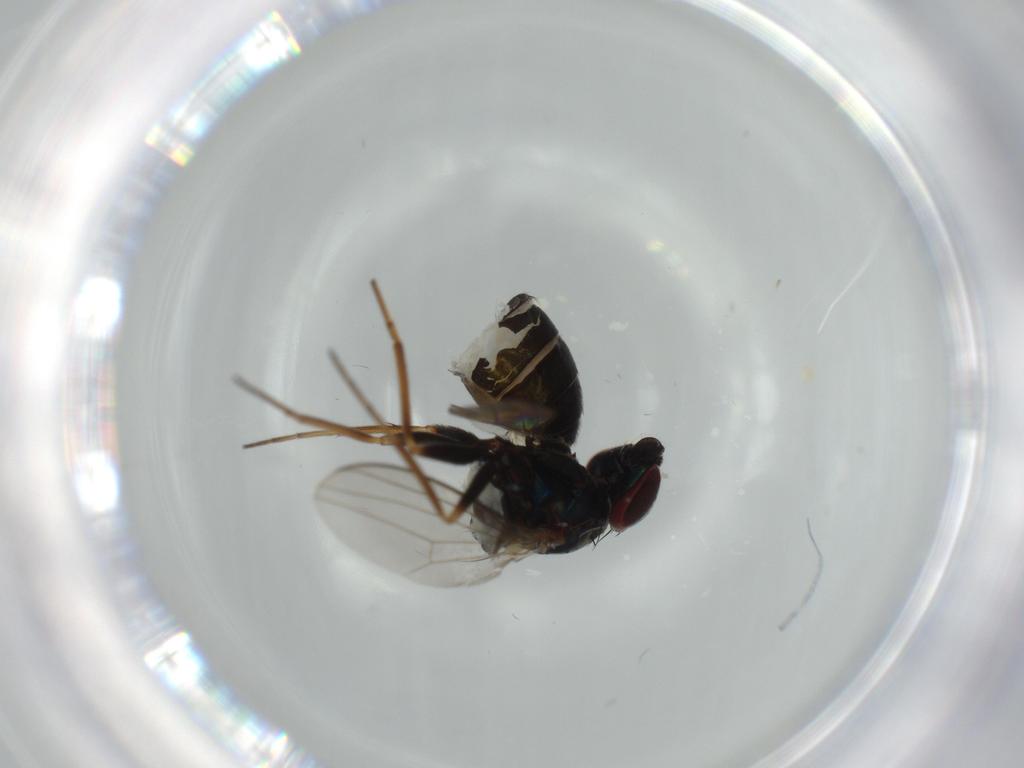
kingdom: Animalia
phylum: Arthropoda
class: Insecta
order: Diptera
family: Dolichopodidae
